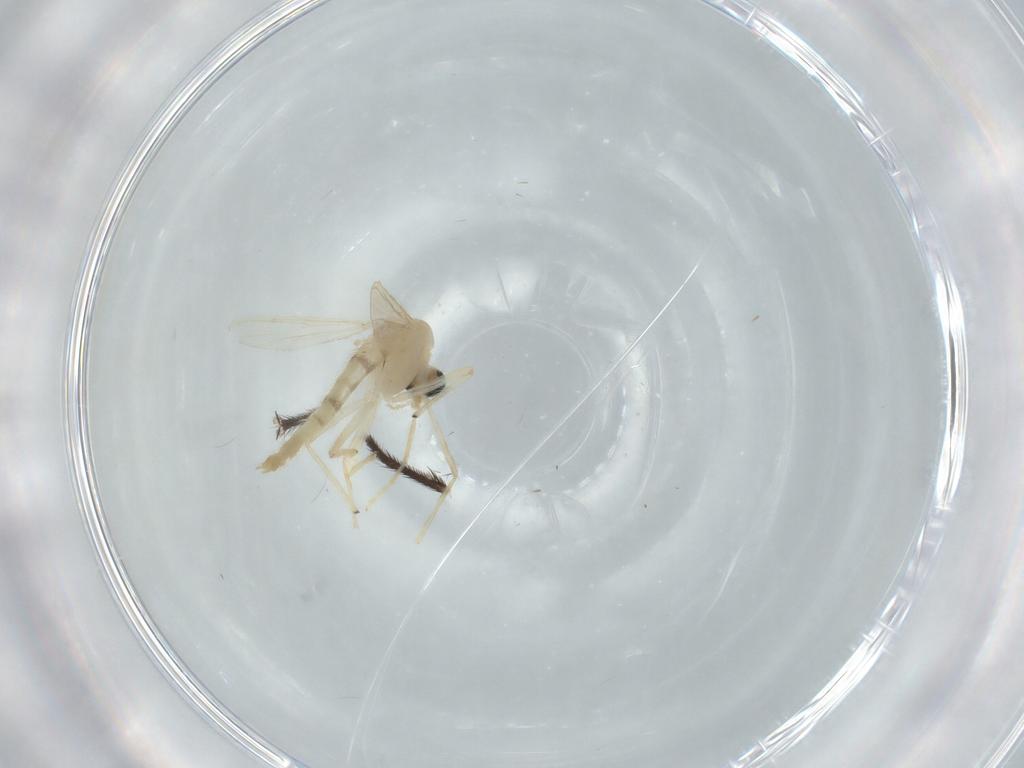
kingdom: Animalia
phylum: Arthropoda
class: Insecta
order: Diptera
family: Chironomidae
